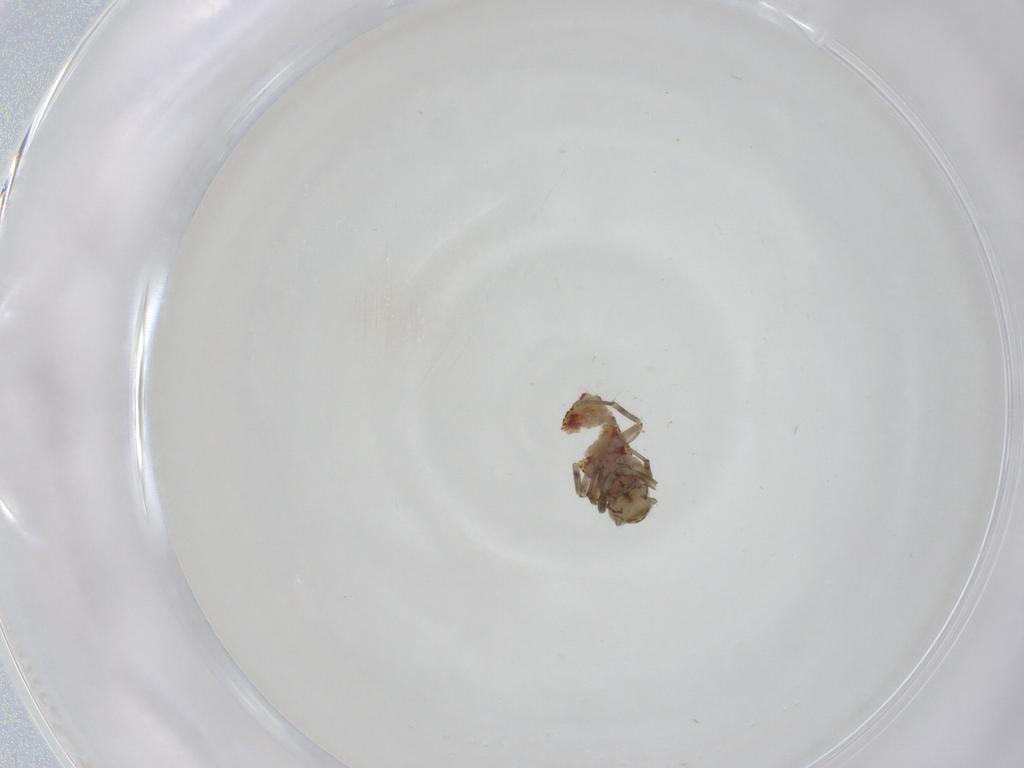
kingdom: Animalia
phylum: Arthropoda
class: Insecta
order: Psocodea
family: Philotarsidae
